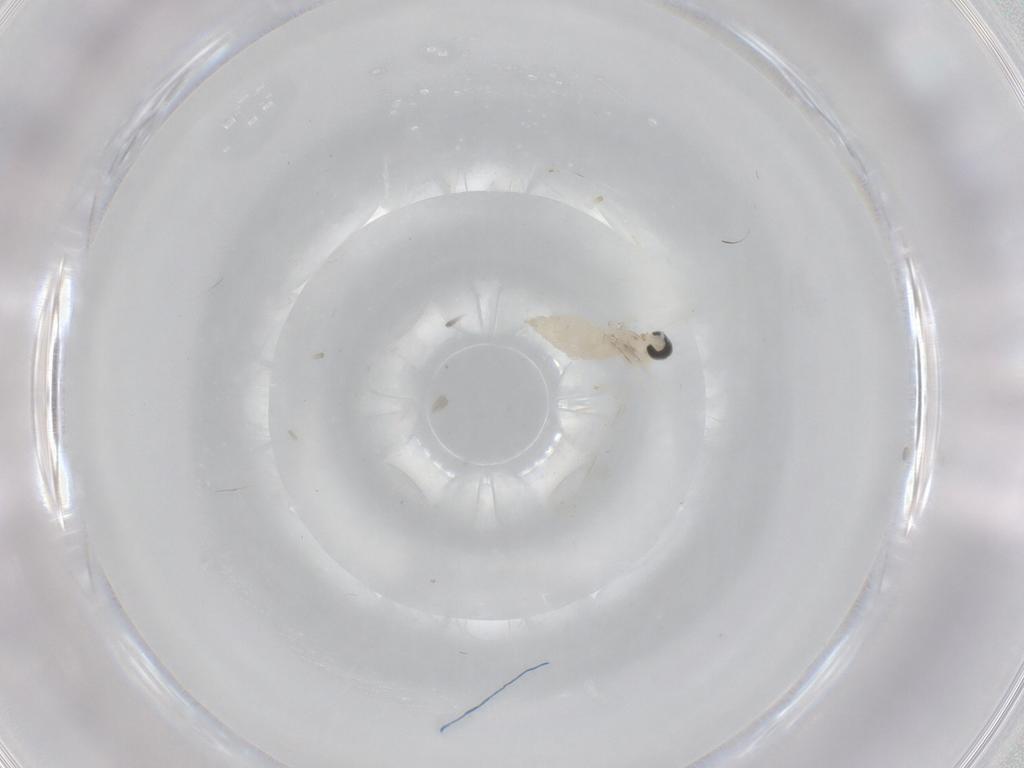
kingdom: Animalia
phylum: Arthropoda
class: Insecta
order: Diptera
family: Cecidomyiidae
